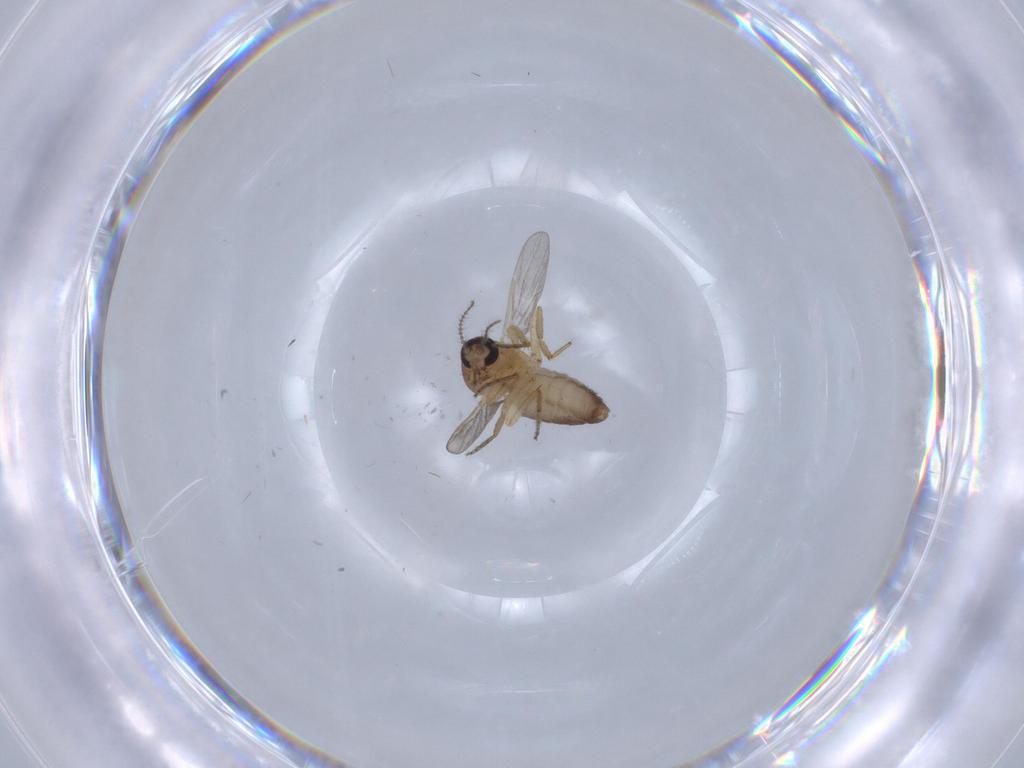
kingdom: Animalia
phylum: Arthropoda
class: Insecta
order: Diptera
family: Ceratopogonidae
